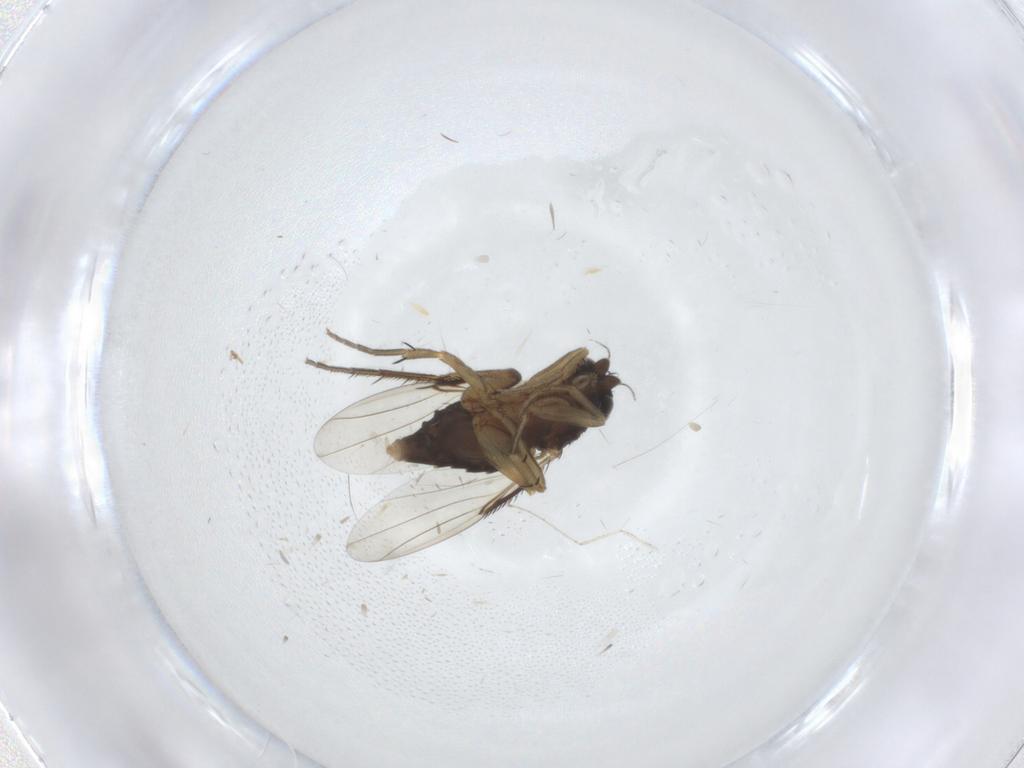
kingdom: Animalia
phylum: Arthropoda
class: Insecta
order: Diptera
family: Phoridae
